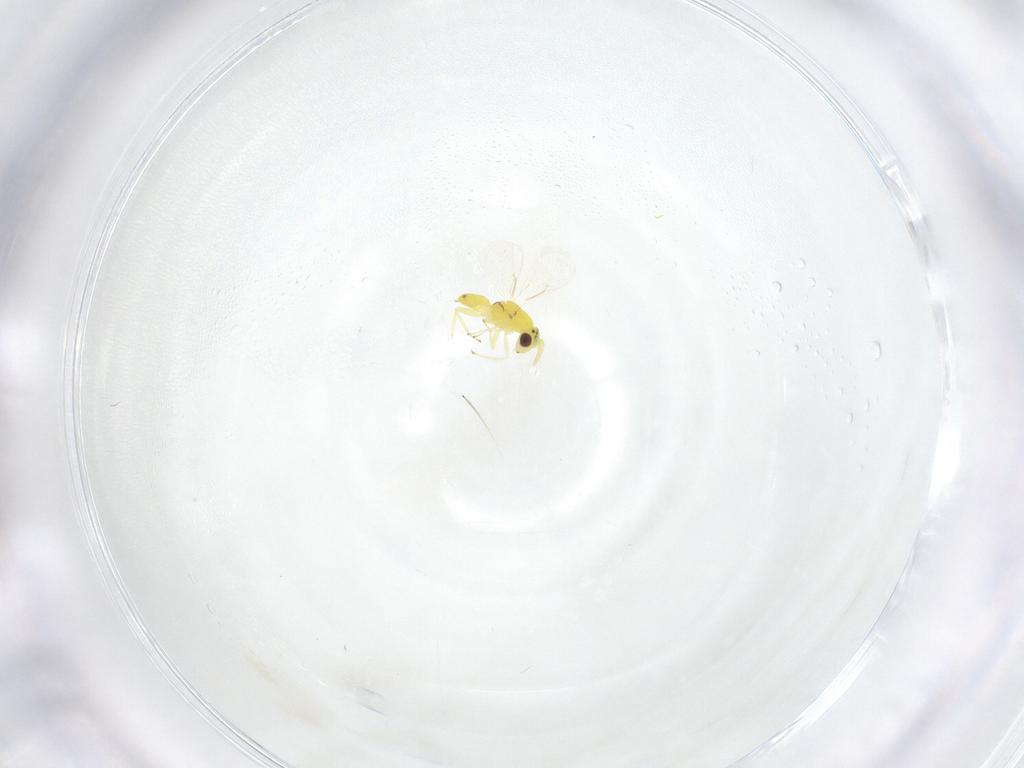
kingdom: Animalia
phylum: Arthropoda
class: Insecta
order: Hymenoptera
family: Eulophidae
